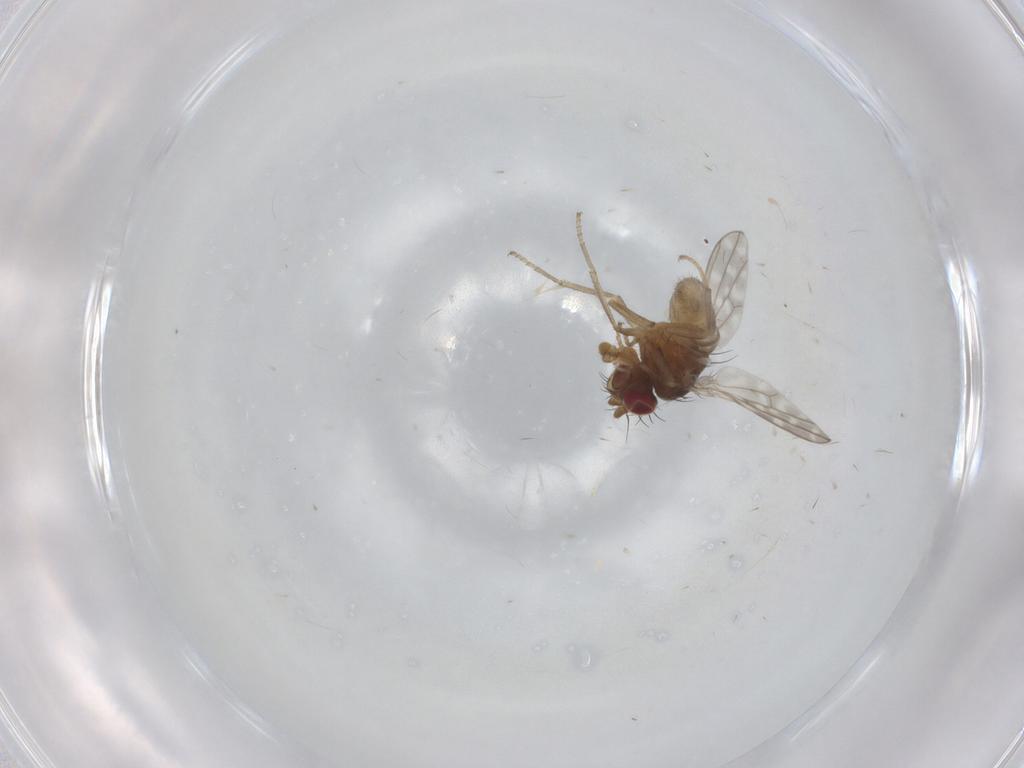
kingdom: Animalia
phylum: Arthropoda
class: Insecta
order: Diptera
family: Ephydridae
